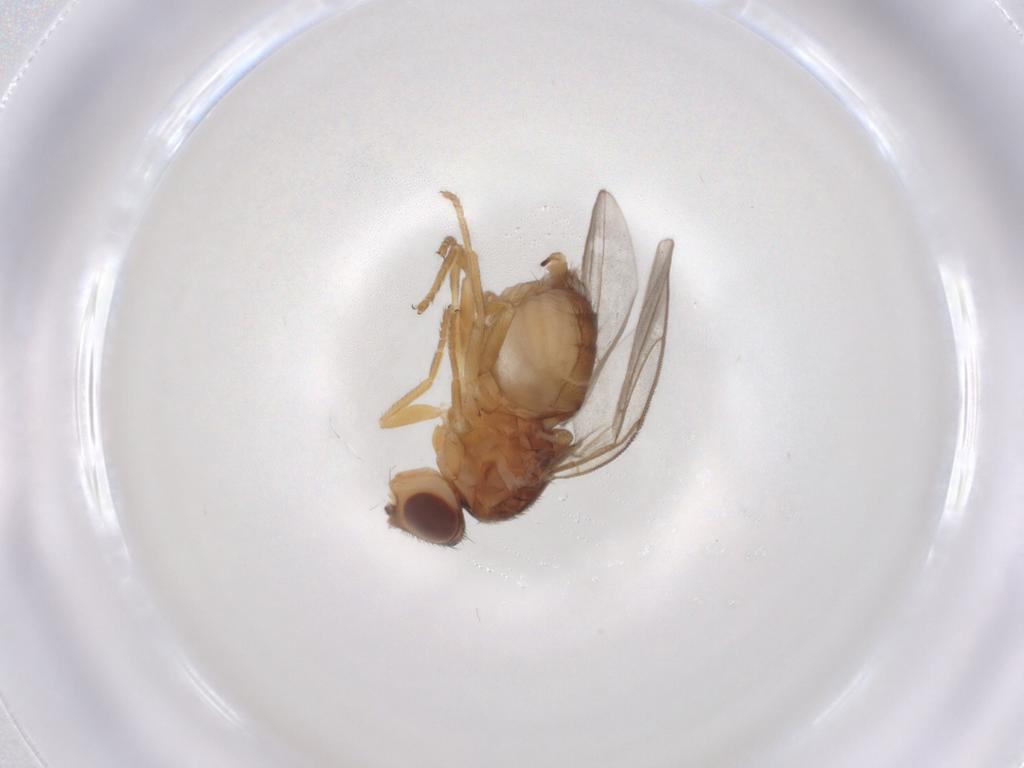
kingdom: Animalia
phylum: Arthropoda
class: Insecta
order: Diptera
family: Chloropidae
